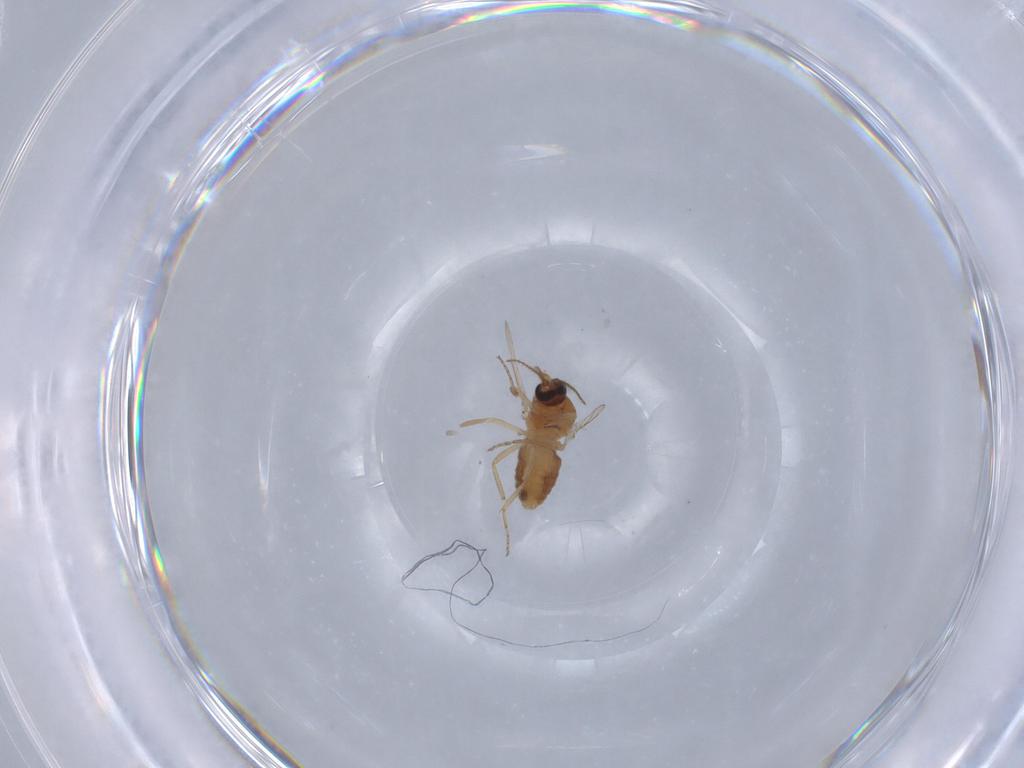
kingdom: Animalia
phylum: Arthropoda
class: Insecta
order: Diptera
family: Ceratopogonidae
